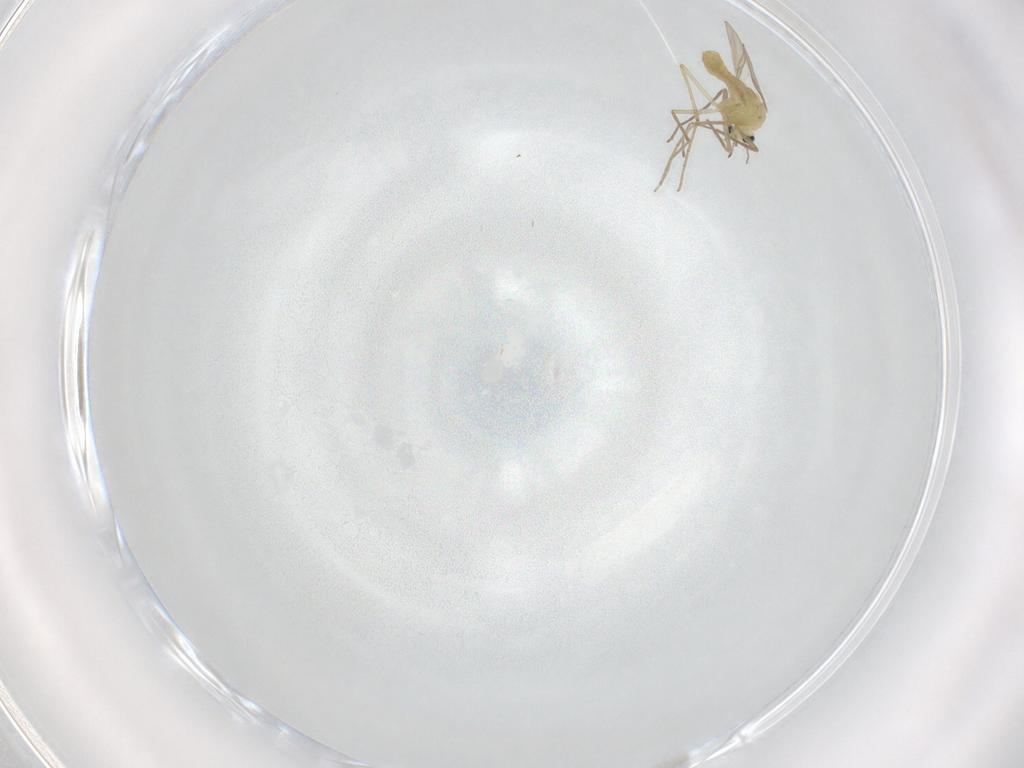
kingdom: Animalia
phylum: Arthropoda
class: Insecta
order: Diptera
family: Chironomidae
